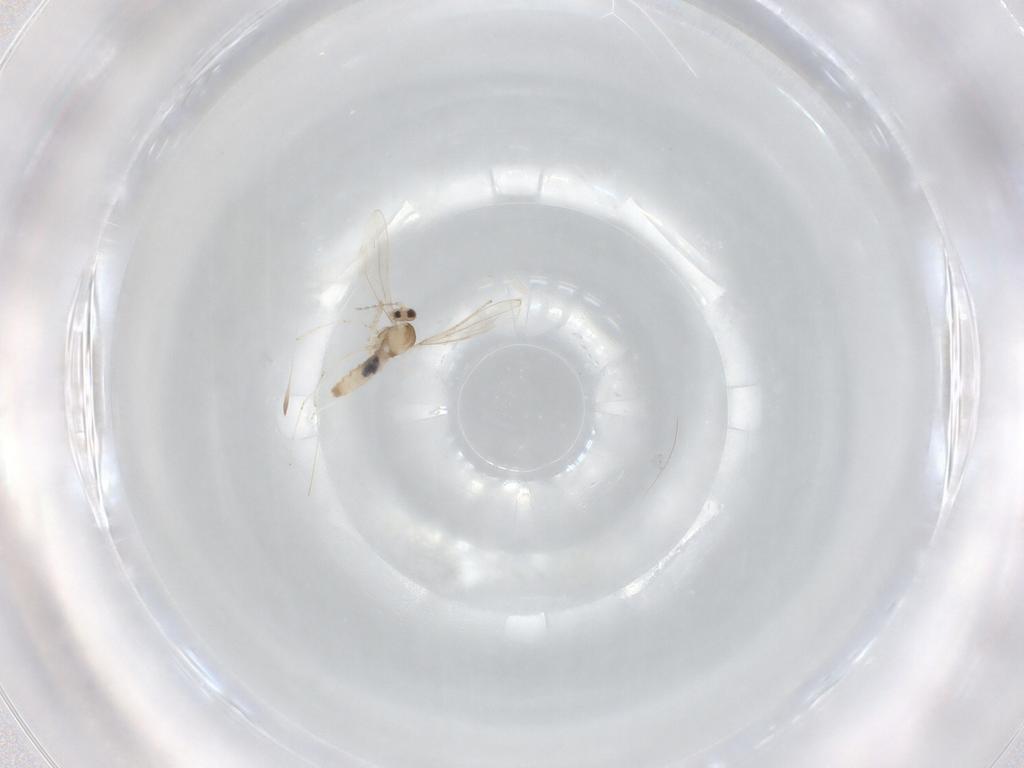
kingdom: Animalia
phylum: Arthropoda
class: Insecta
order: Diptera
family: Cecidomyiidae
